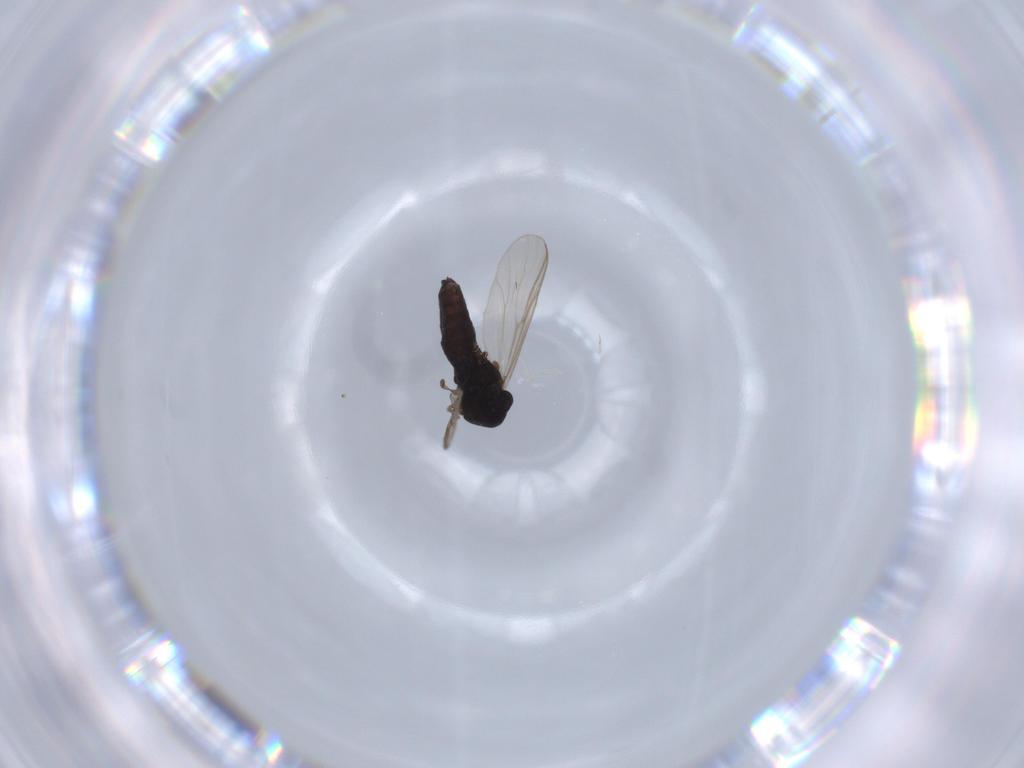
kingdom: Animalia
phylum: Arthropoda
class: Insecta
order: Diptera
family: Chironomidae
